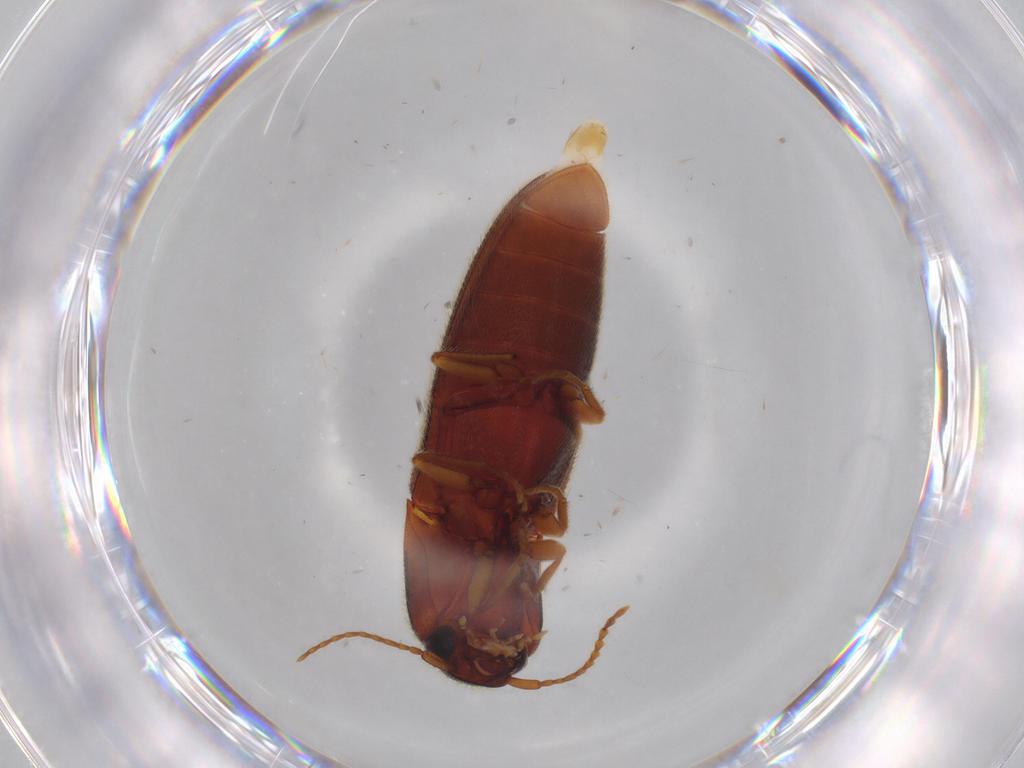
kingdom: Animalia
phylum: Arthropoda
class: Insecta
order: Coleoptera
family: Elateridae
